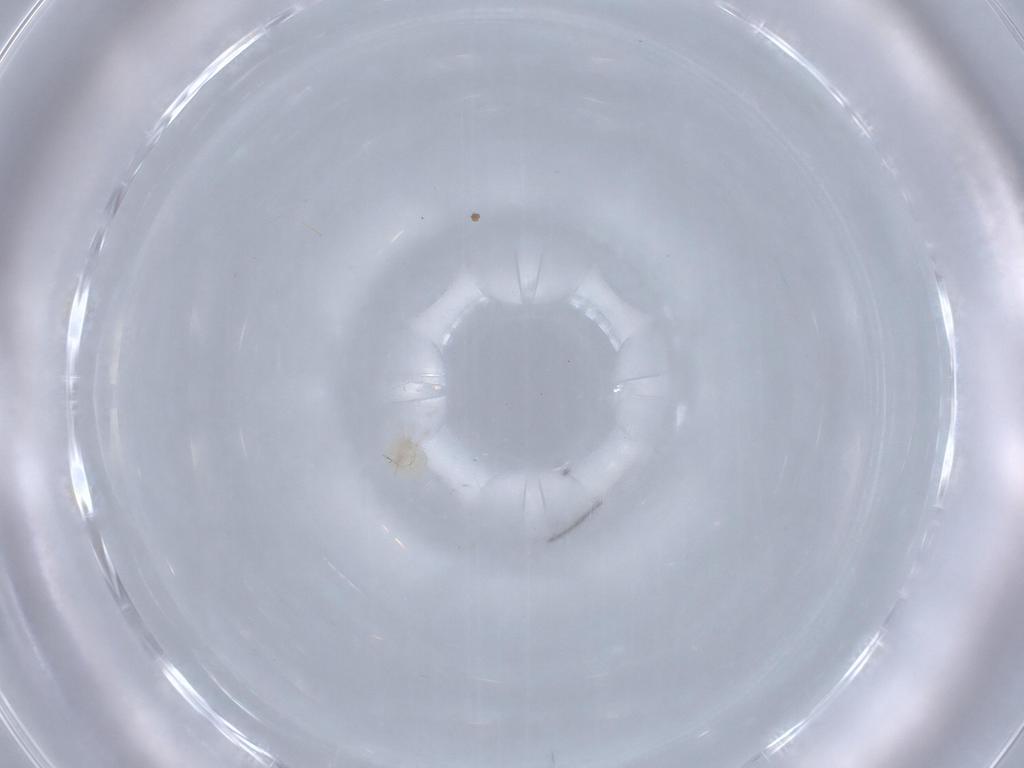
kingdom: Animalia
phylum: Arthropoda
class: Arachnida
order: Trombidiformes
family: Anystidae
